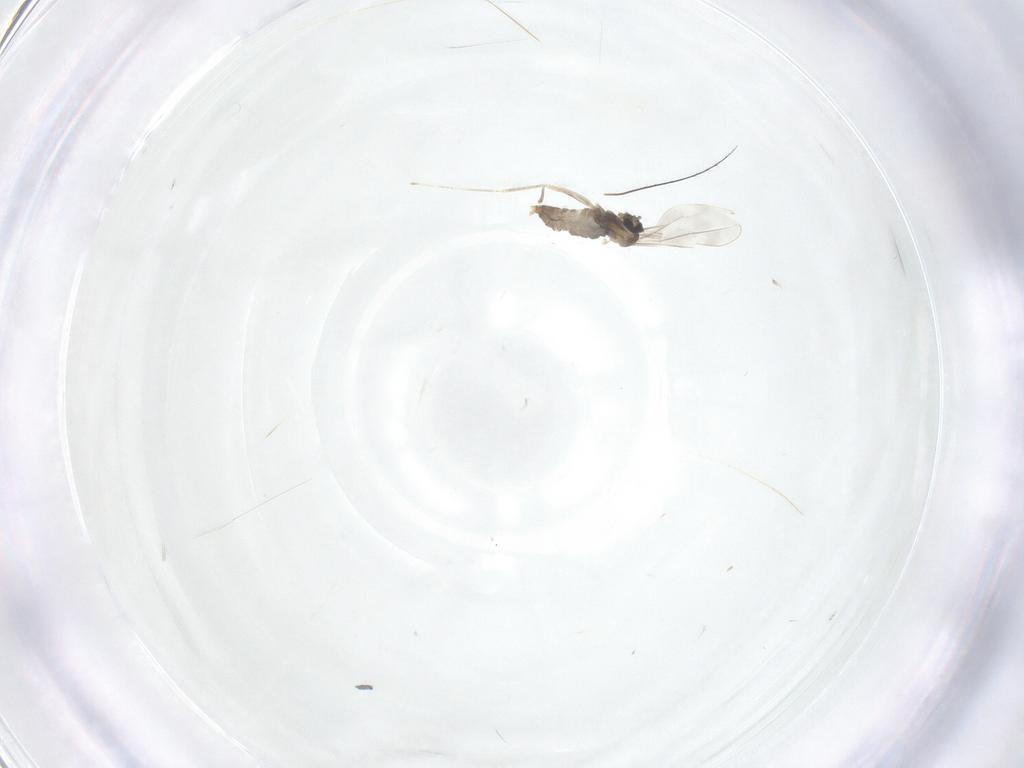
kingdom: Animalia
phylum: Arthropoda
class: Insecta
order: Diptera
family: Cecidomyiidae
